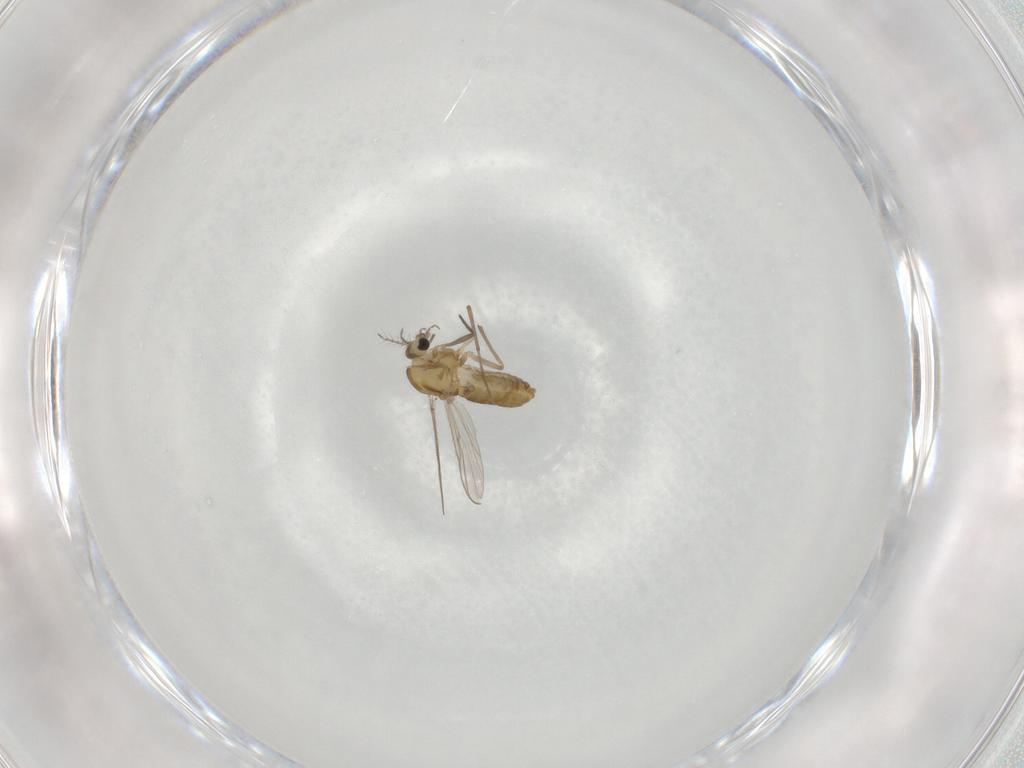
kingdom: Animalia
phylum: Arthropoda
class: Insecta
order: Diptera
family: Chironomidae
